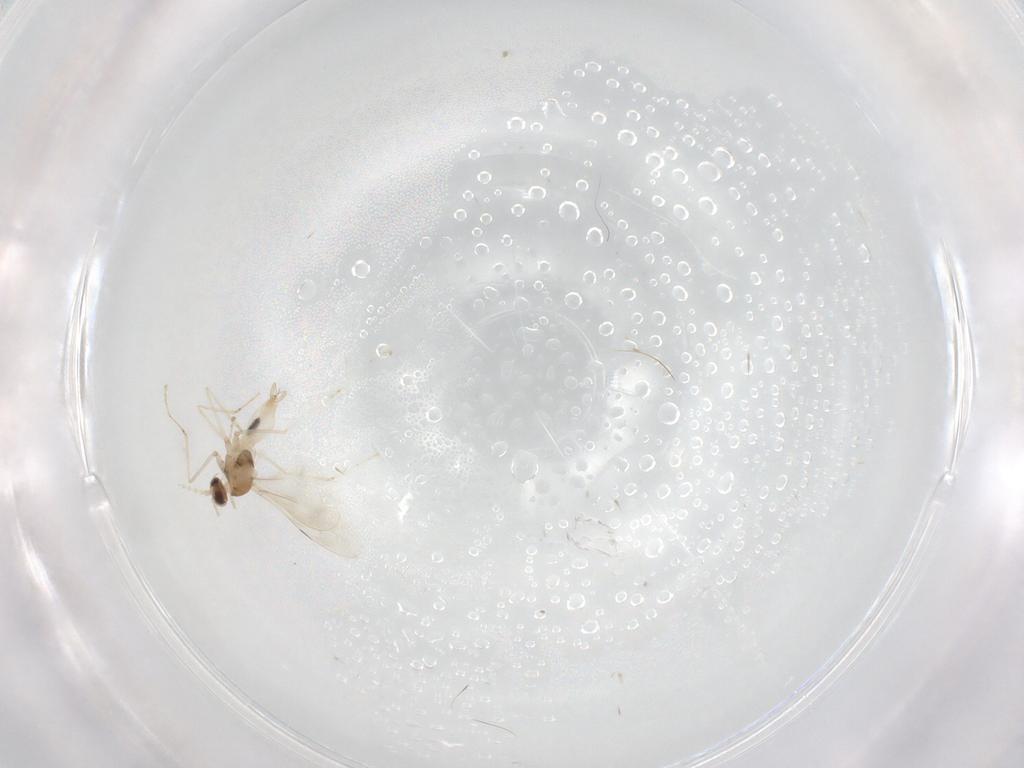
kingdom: Animalia
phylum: Arthropoda
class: Insecta
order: Diptera
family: Cecidomyiidae
